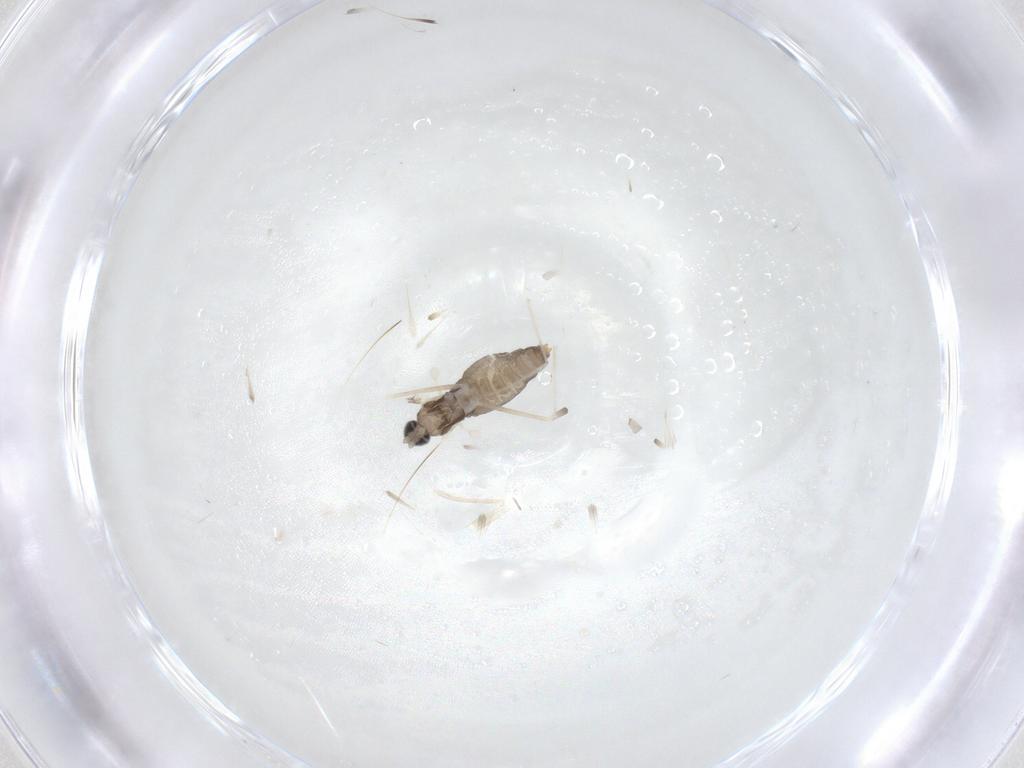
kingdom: Animalia
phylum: Arthropoda
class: Insecta
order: Diptera
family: Cecidomyiidae
